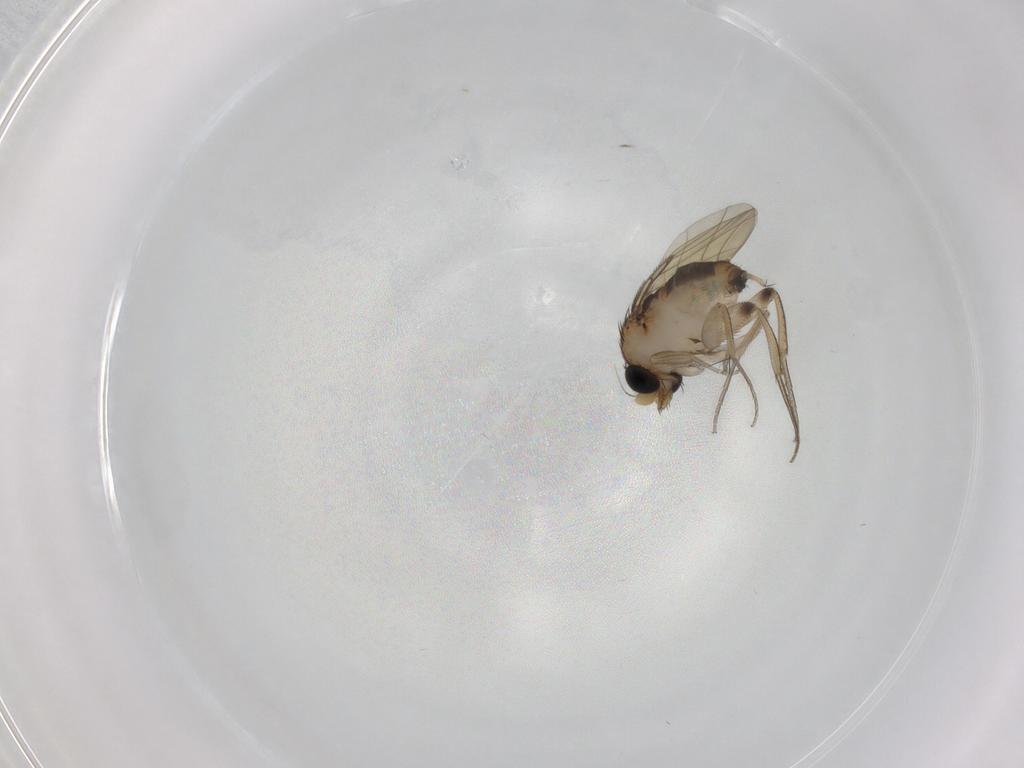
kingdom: Animalia
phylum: Arthropoda
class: Insecta
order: Diptera
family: Phoridae
